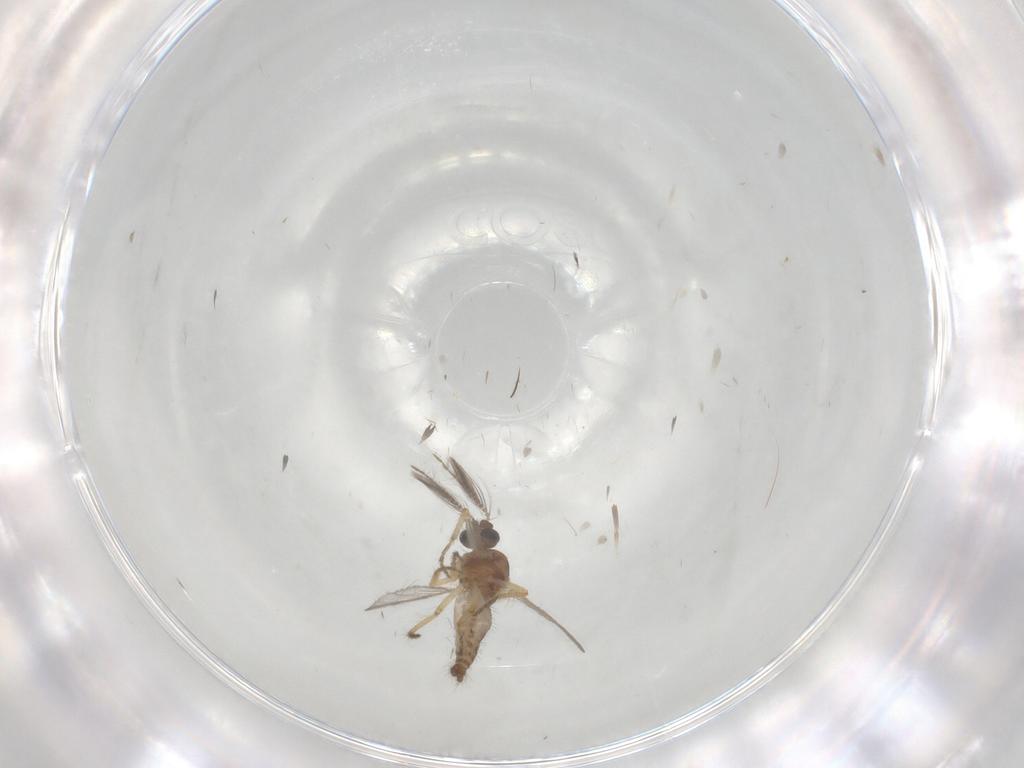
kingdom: Animalia
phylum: Arthropoda
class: Insecta
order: Diptera
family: Ceratopogonidae
